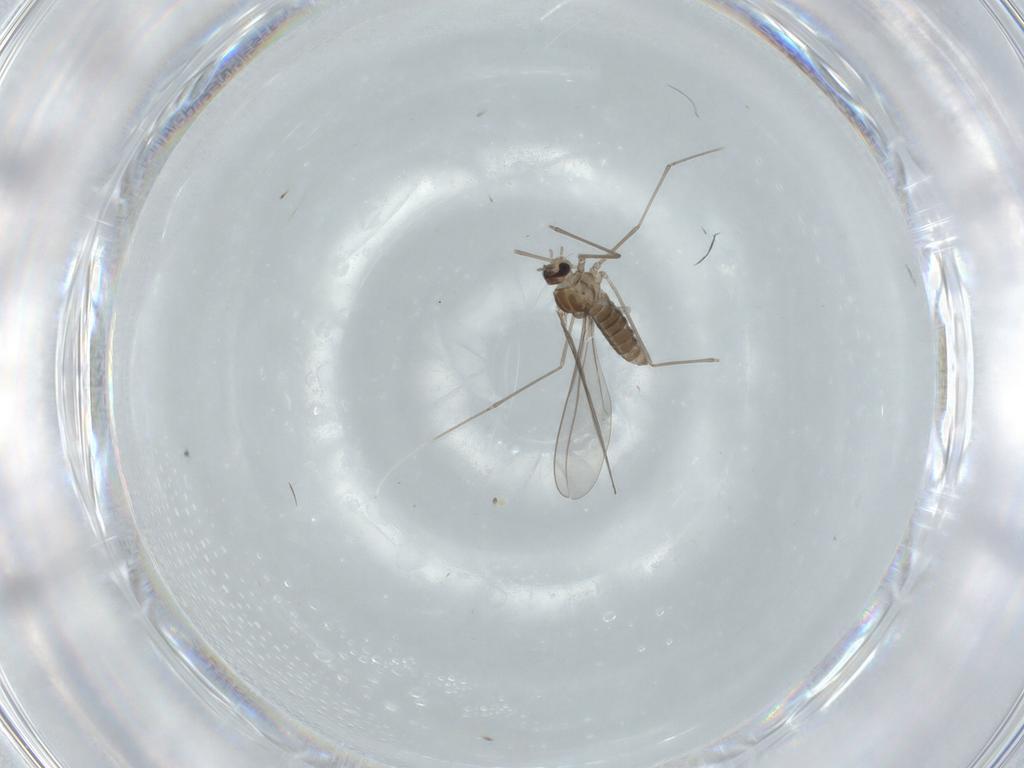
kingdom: Animalia
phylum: Arthropoda
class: Insecta
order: Diptera
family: Cecidomyiidae
